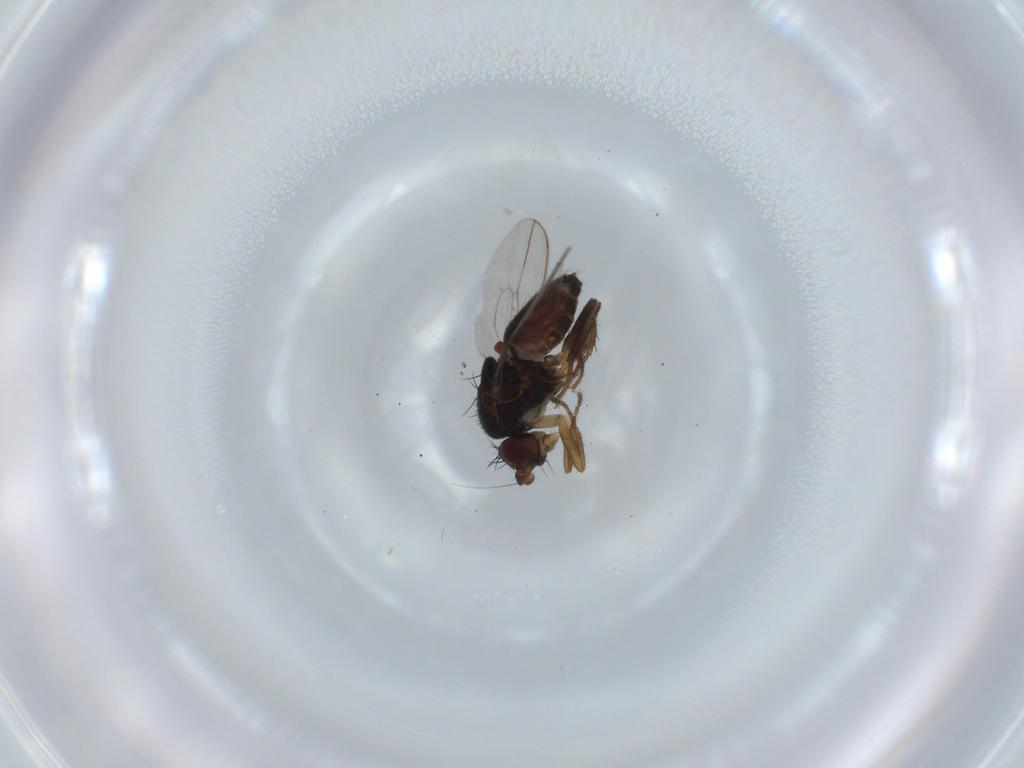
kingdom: Animalia
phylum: Arthropoda
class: Insecta
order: Diptera
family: Sphaeroceridae
